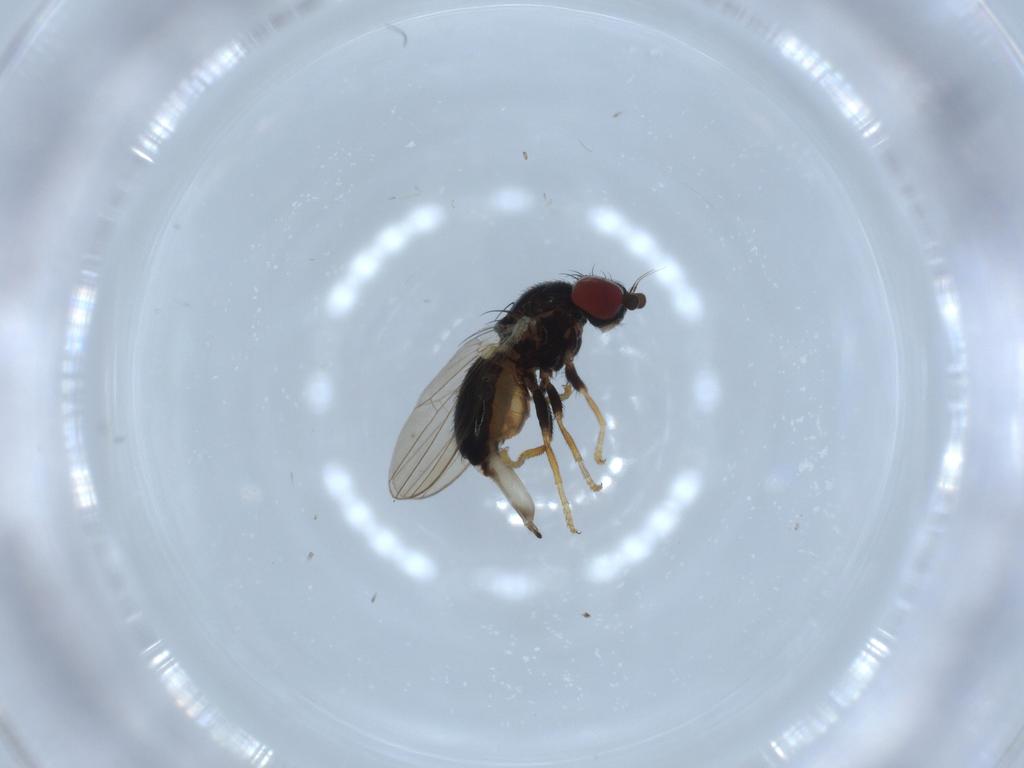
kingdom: Animalia
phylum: Arthropoda
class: Insecta
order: Diptera
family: Chamaemyiidae
